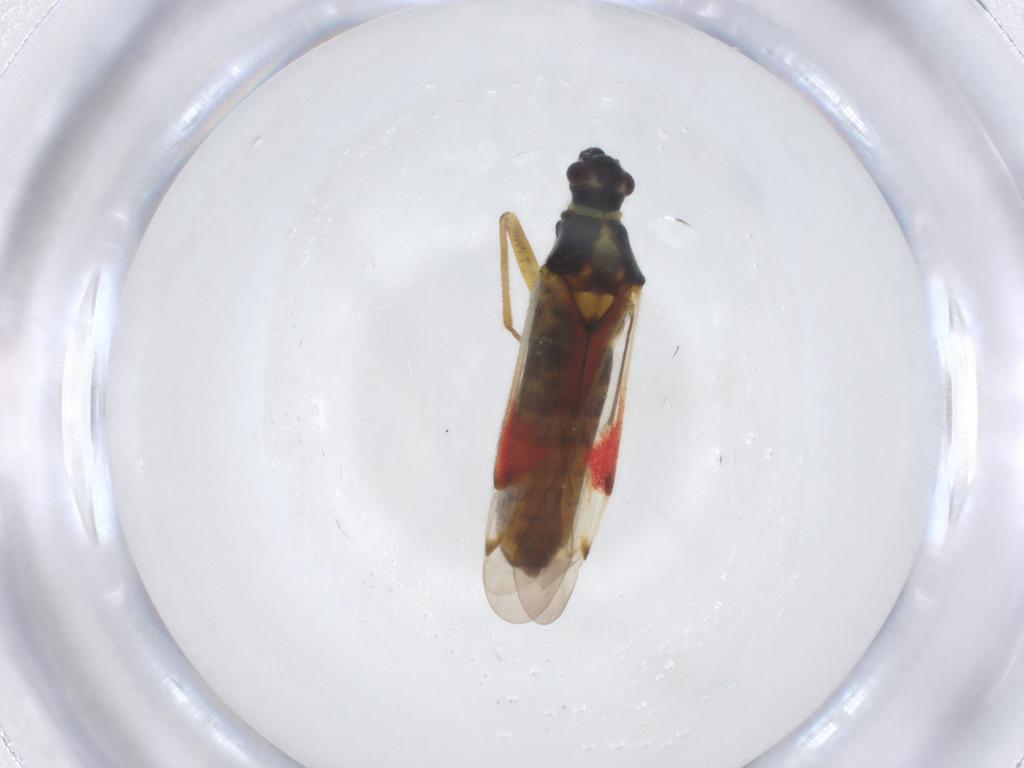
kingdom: Animalia
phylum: Arthropoda
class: Insecta
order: Hemiptera
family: Miridae
